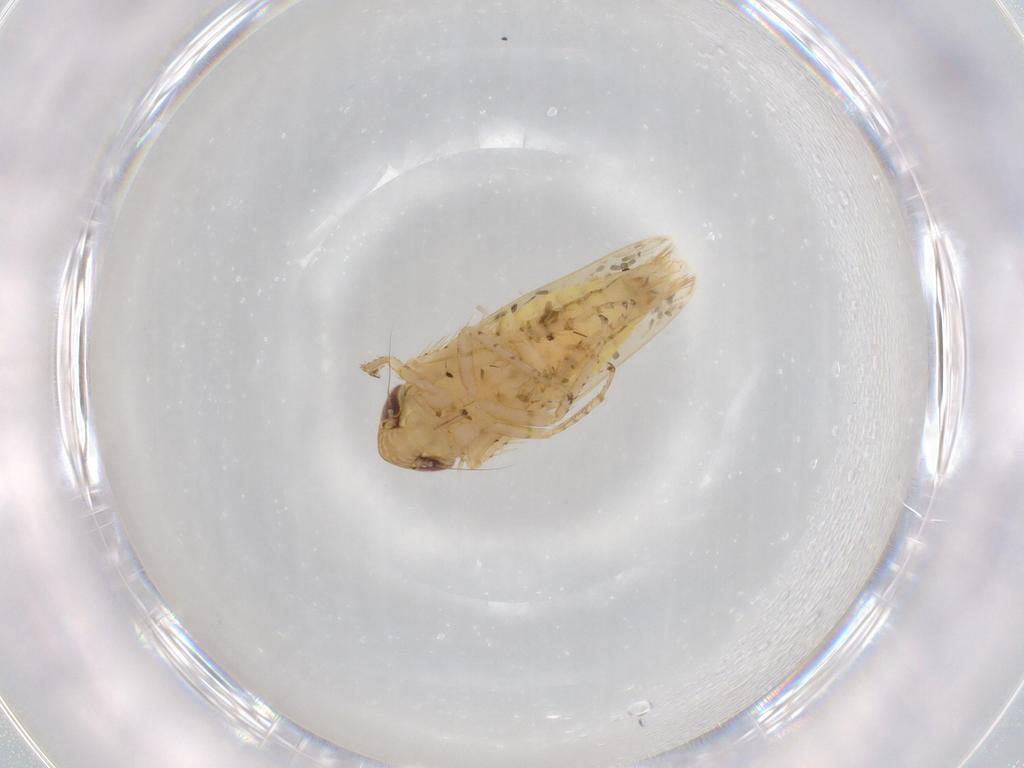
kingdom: Animalia
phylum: Arthropoda
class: Insecta
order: Hemiptera
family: Cicadellidae
